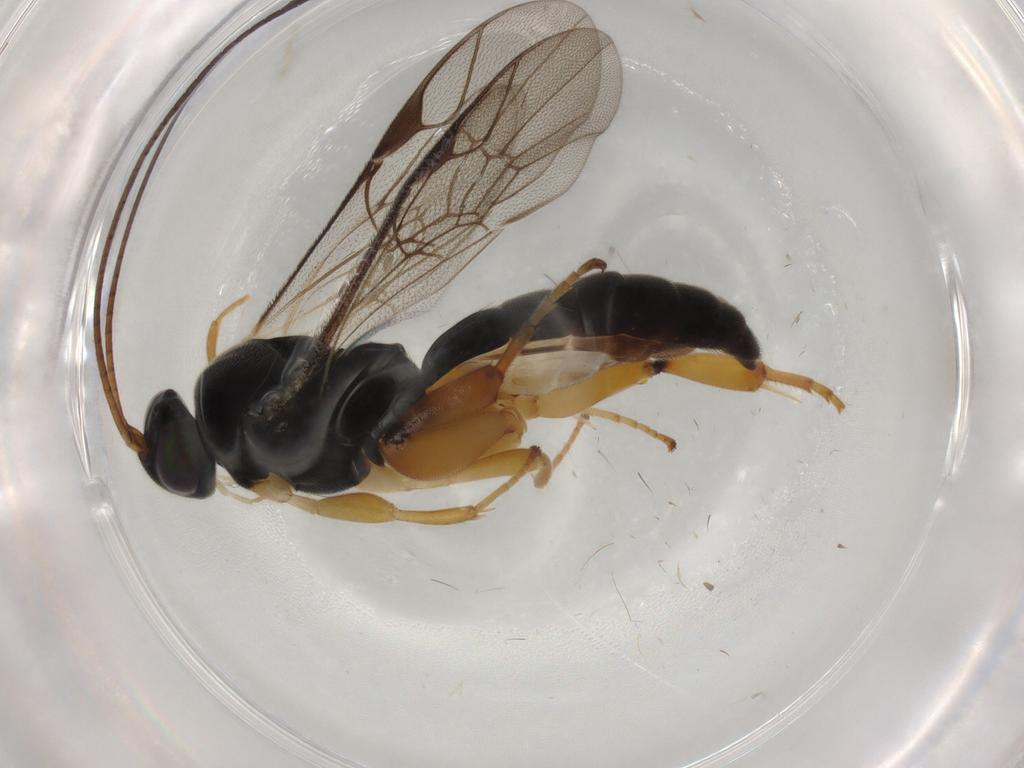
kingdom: Animalia
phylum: Arthropoda
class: Insecta
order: Hymenoptera
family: Ichneumonidae
